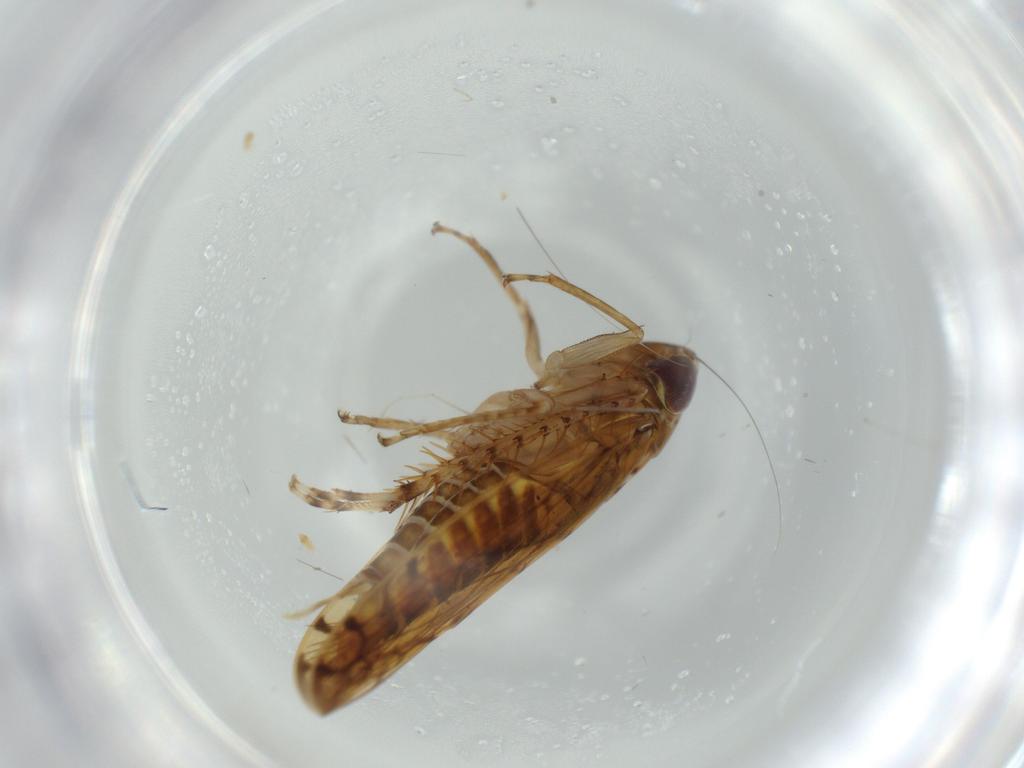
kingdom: Animalia
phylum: Arthropoda
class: Insecta
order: Hemiptera
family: Cicadellidae
